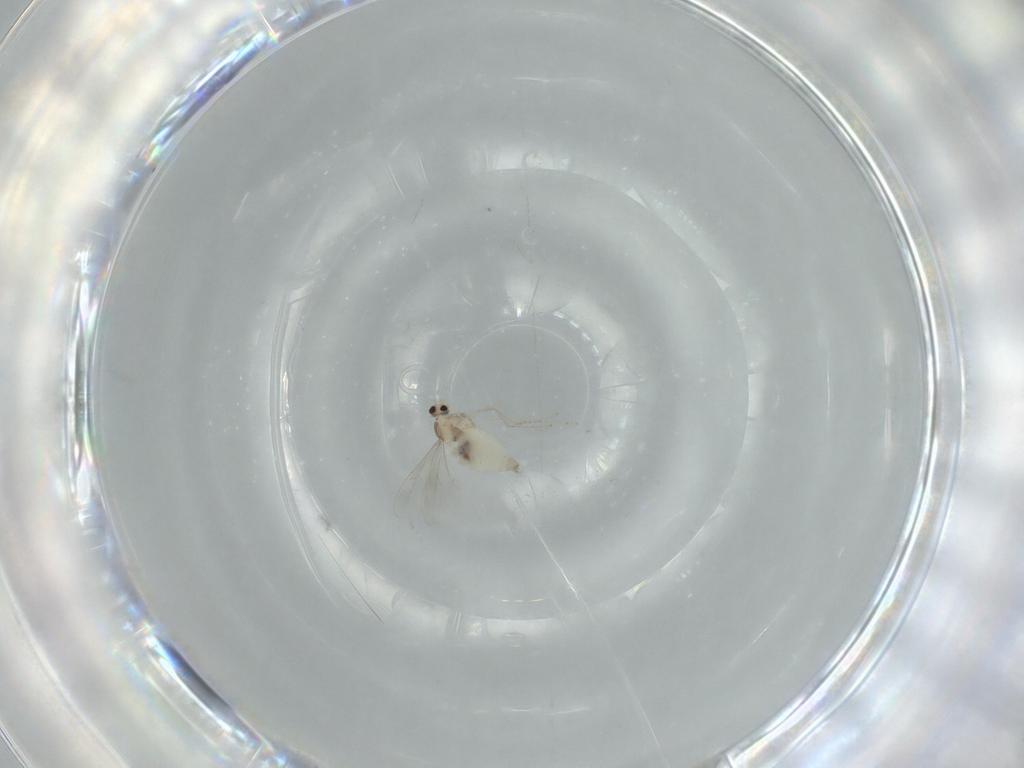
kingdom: Animalia
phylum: Arthropoda
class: Insecta
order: Diptera
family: Cecidomyiidae
